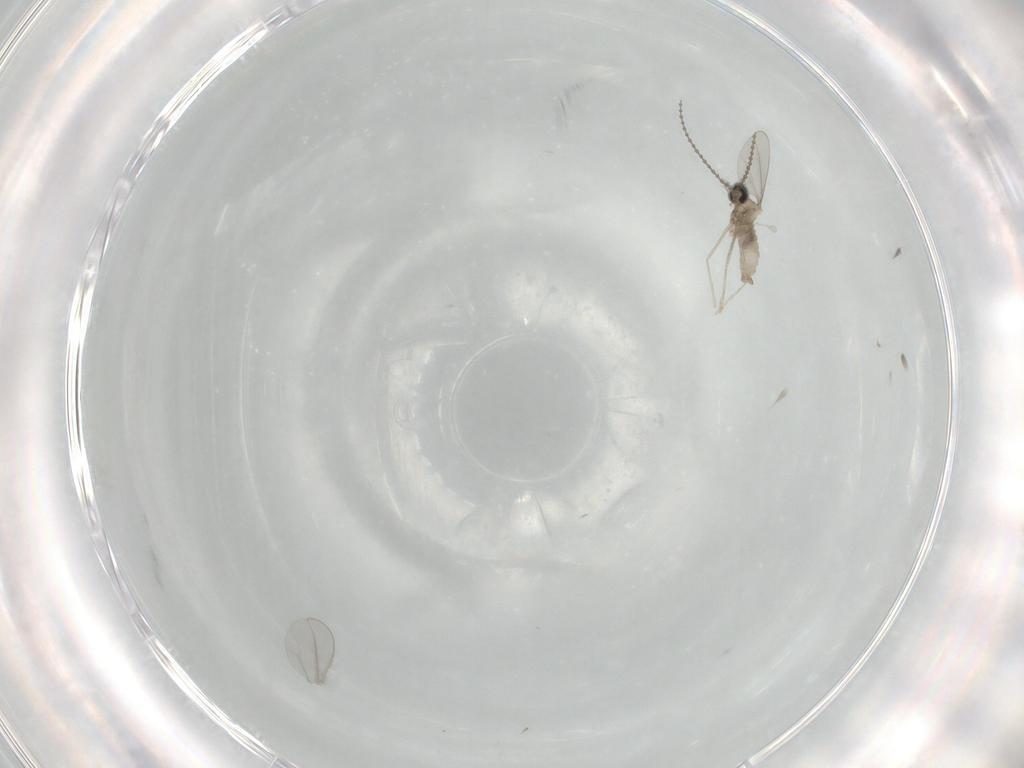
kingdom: Animalia
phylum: Arthropoda
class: Insecta
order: Diptera
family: Cecidomyiidae
